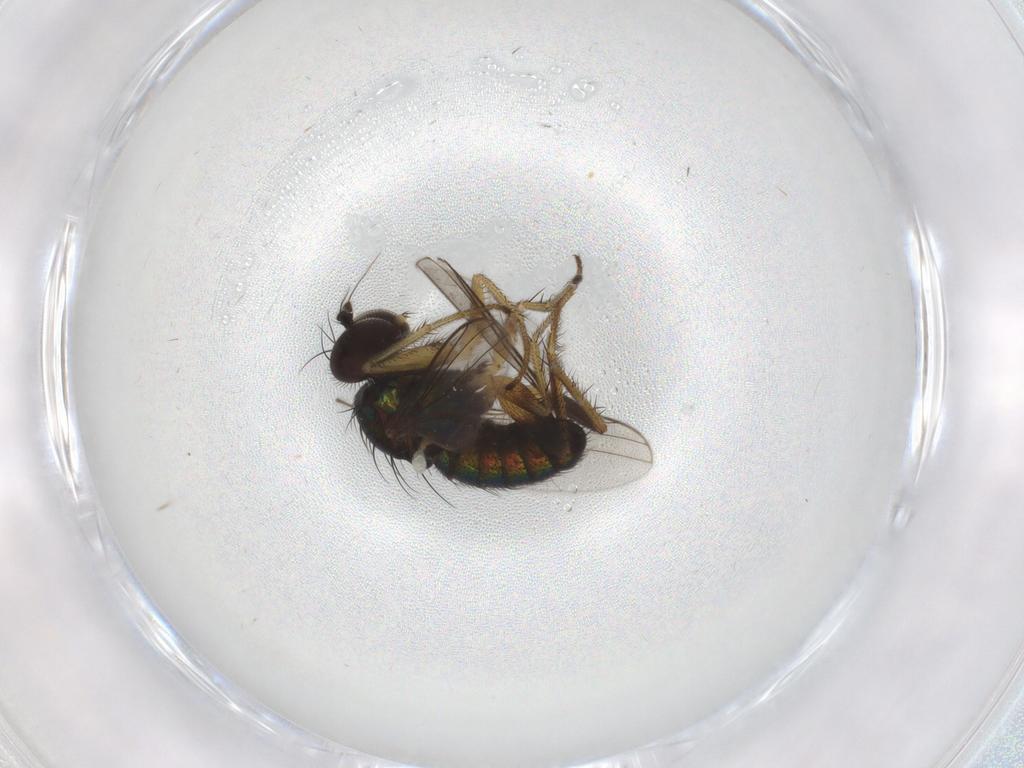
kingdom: Animalia
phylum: Arthropoda
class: Insecta
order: Diptera
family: Dolichopodidae
